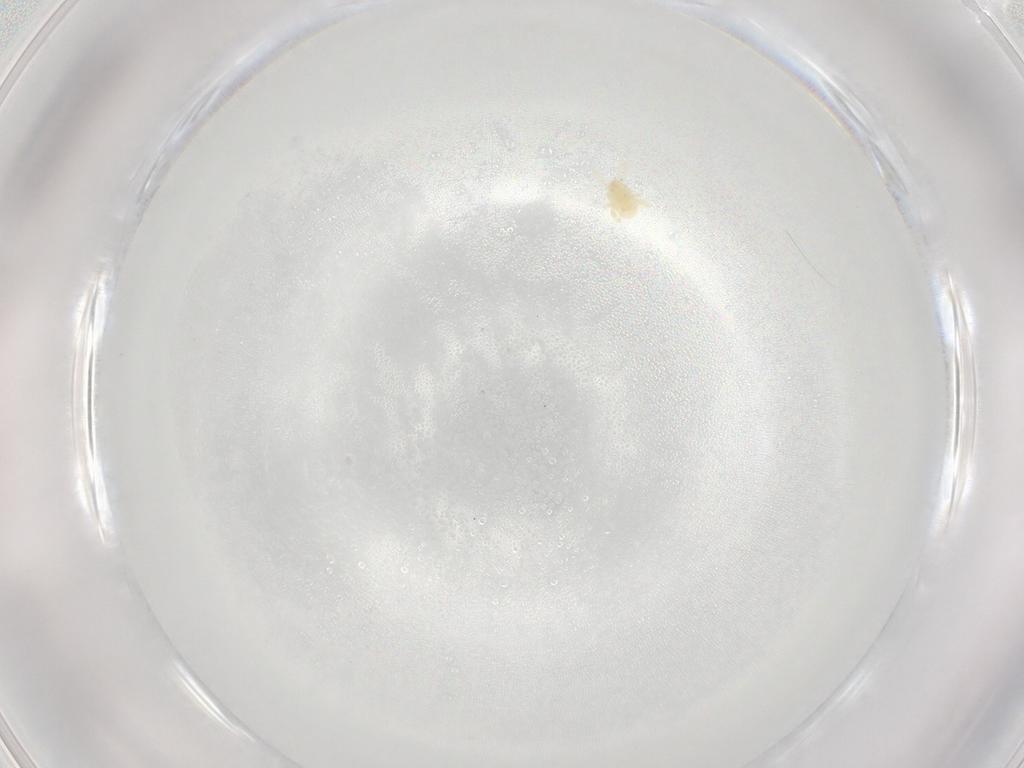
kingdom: Animalia
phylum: Arthropoda
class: Arachnida
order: Trombidiformes
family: Eupodidae
